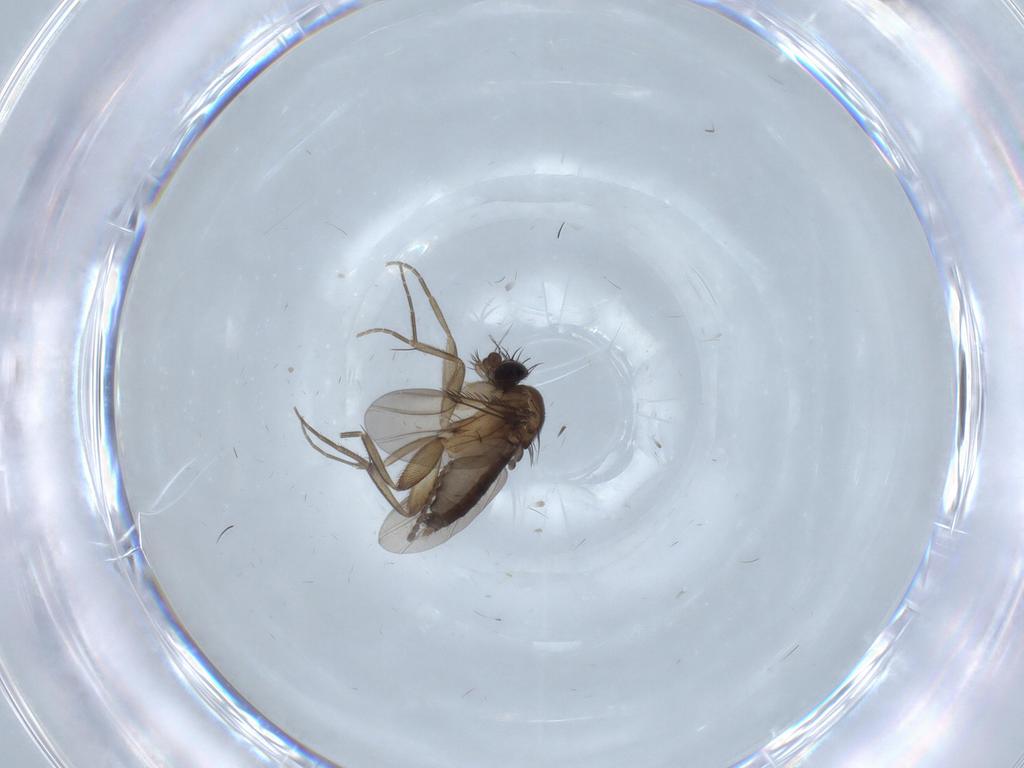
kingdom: Animalia
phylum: Arthropoda
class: Insecta
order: Diptera
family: Phoridae
